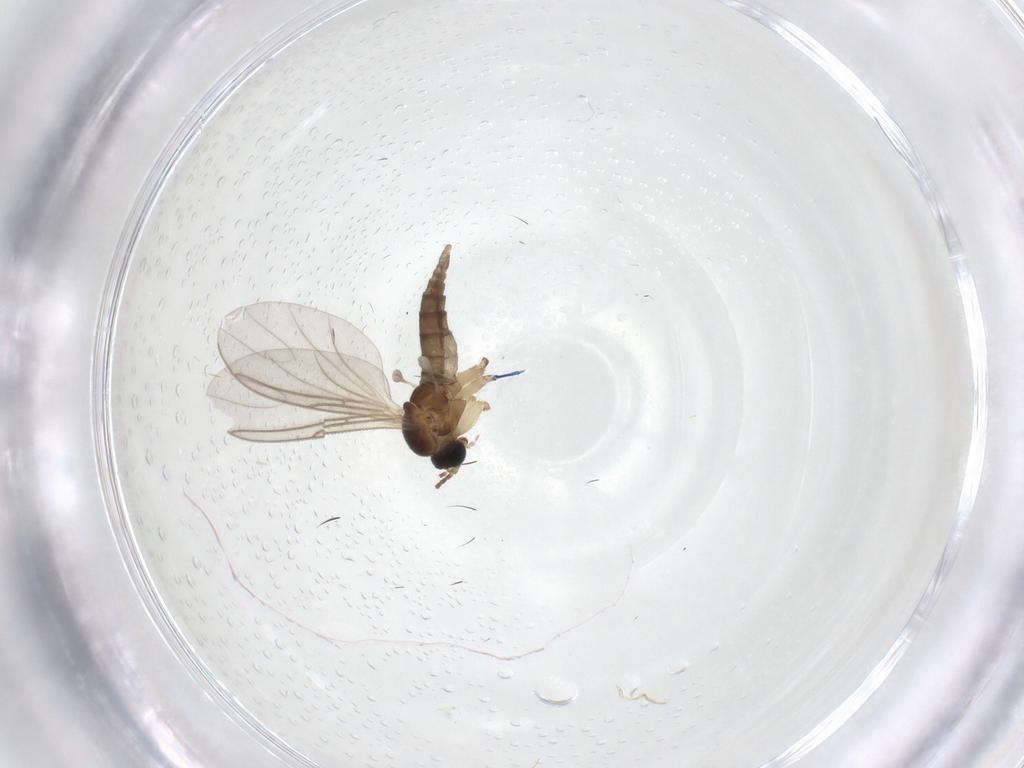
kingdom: Animalia
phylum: Arthropoda
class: Insecta
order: Diptera
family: Sciaridae
